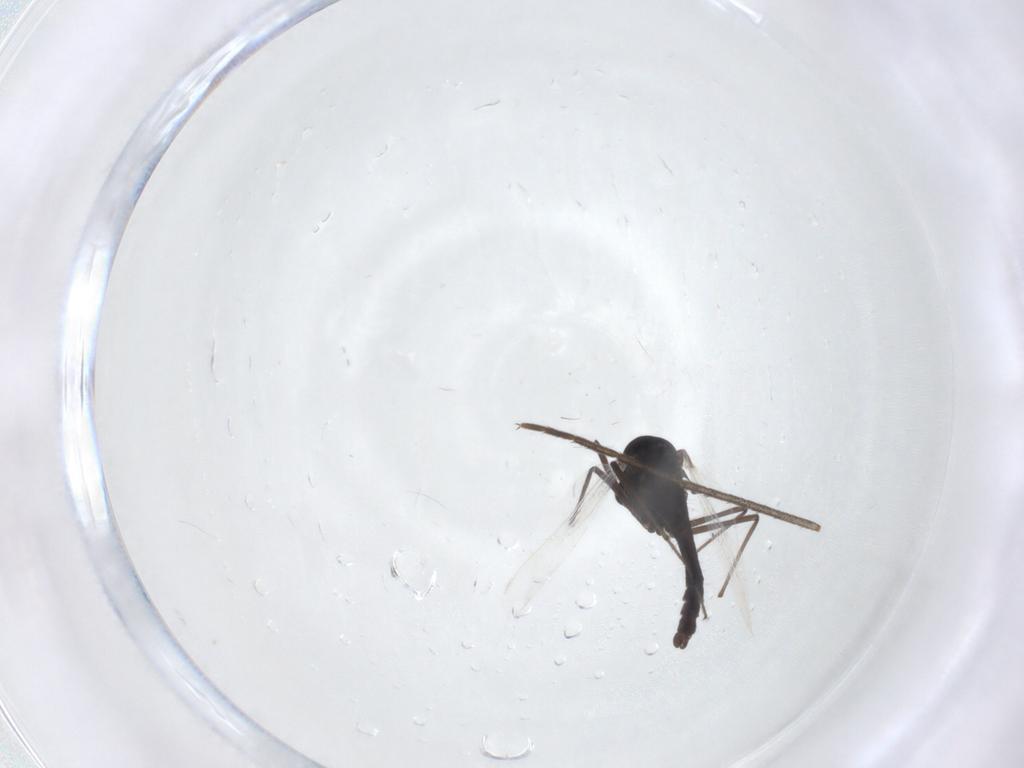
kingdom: Animalia
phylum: Arthropoda
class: Insecta
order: Diptera
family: Mycetophilidae
